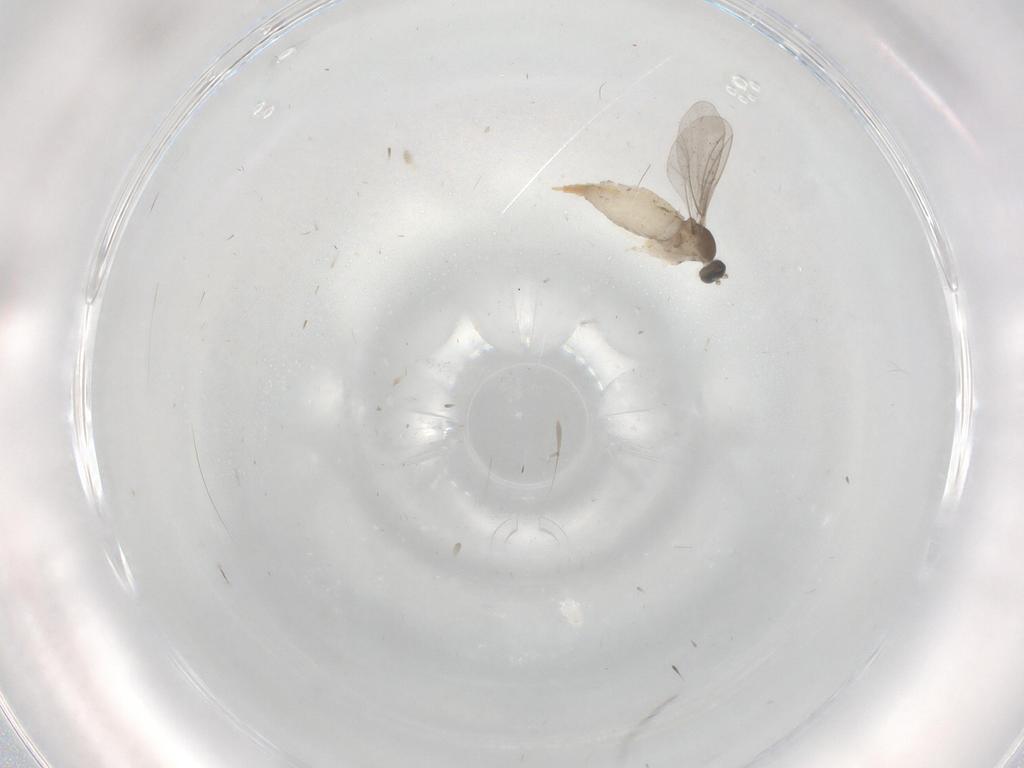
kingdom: Animalia
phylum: Arthropoda
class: Insecta
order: Diptera
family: Cecidomyiidae
